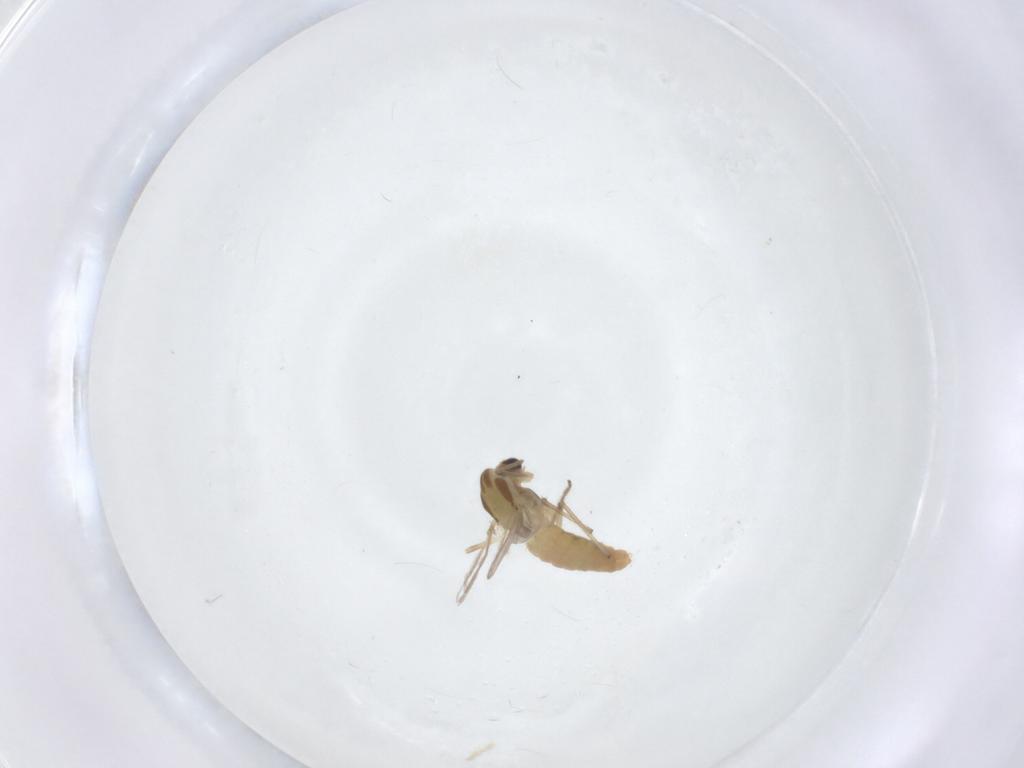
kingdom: Animalia
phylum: Arthropoda
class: Insecta
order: Diptera
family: Chironomidae
